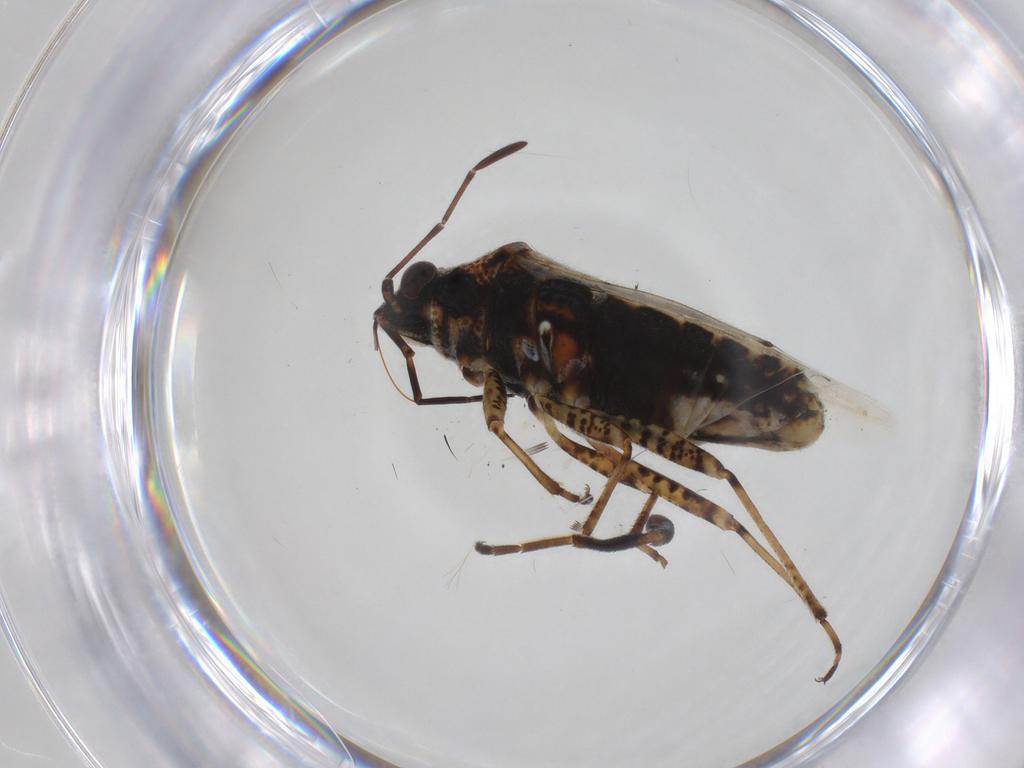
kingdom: Animalia
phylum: Arthropoda
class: Insecta
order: Hemiptera
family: Lygaeidae
